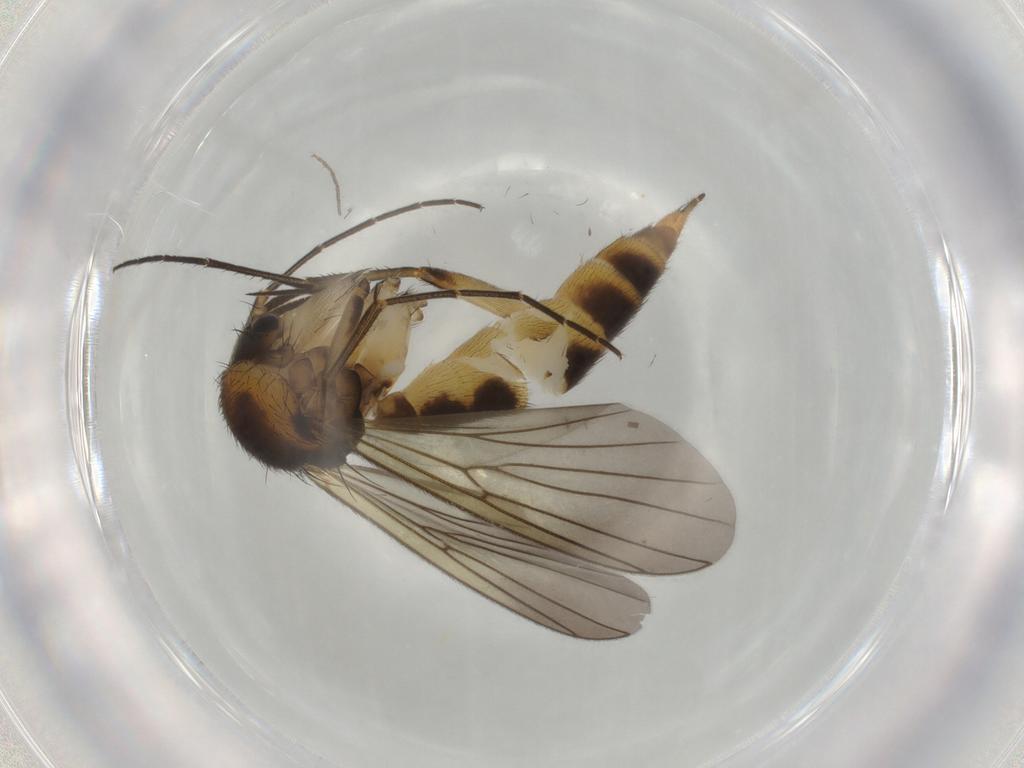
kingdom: Animalia
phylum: Arthropoda
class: Insecta
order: Diptera
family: Mycetophilidae
